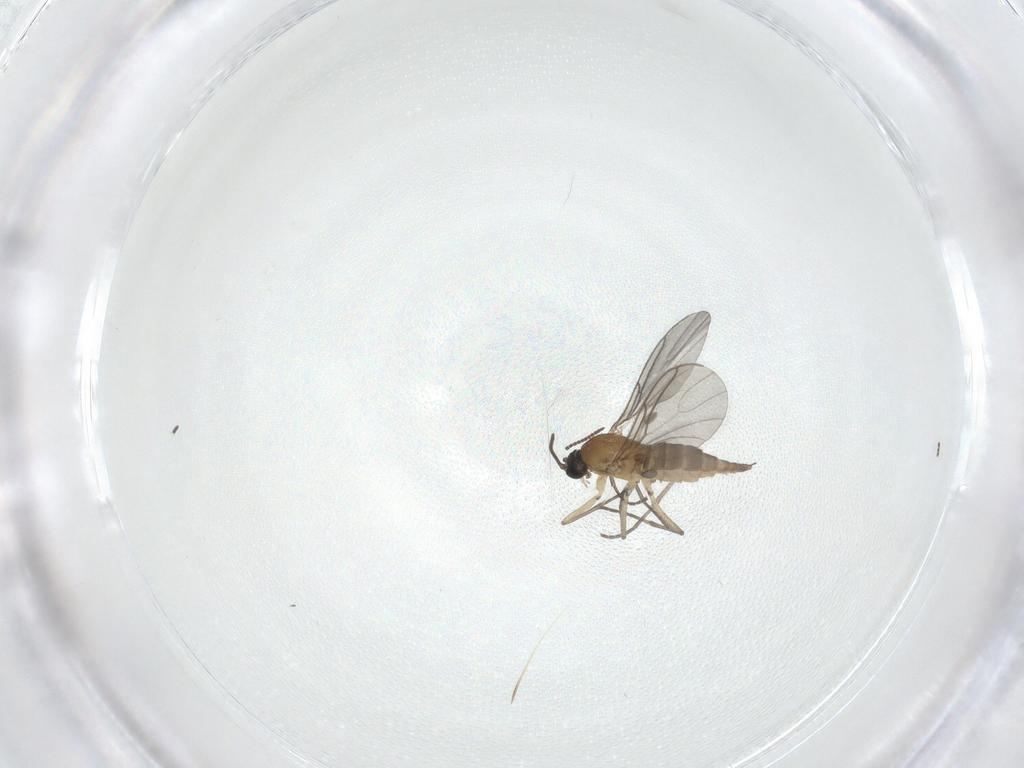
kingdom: Animalia
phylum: Arthropoda
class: Insecta
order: Diptera
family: Sciaridae
